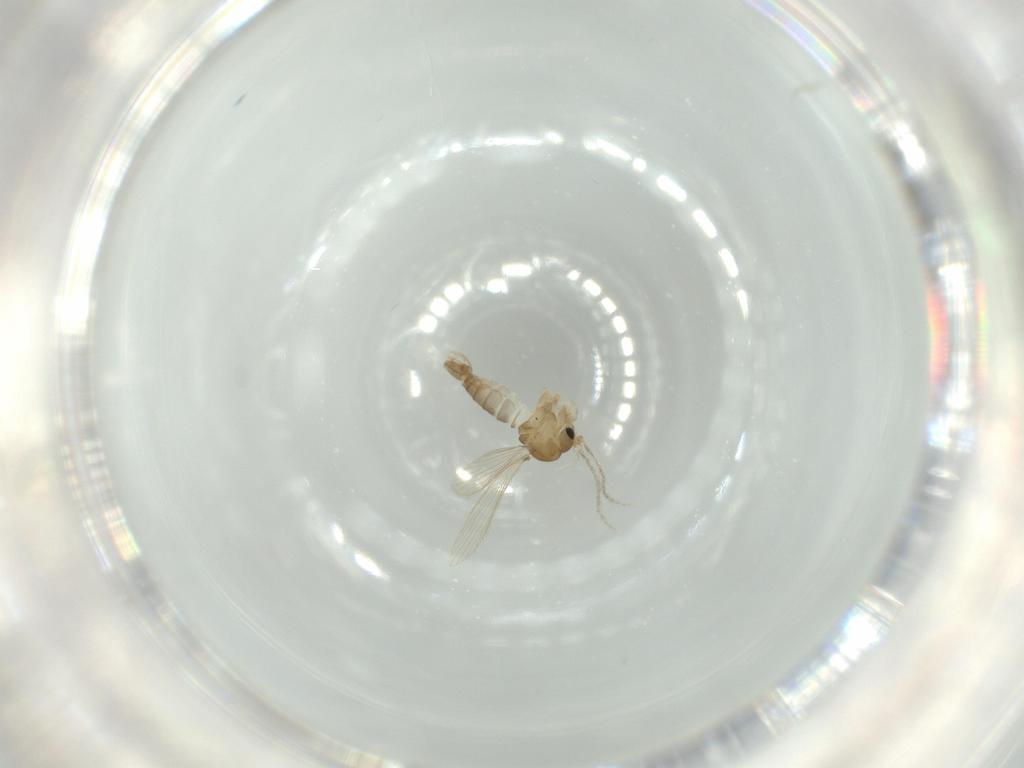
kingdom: Animalia
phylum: Arthropoda
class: Insecta
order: Diptera
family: Psychodidae
